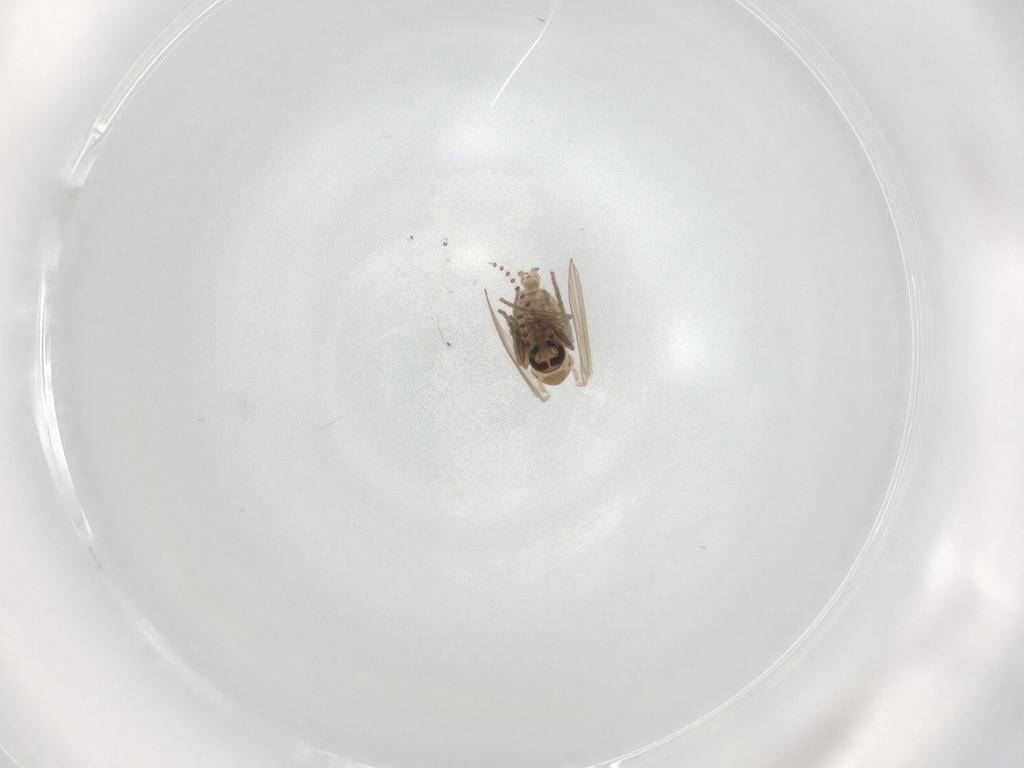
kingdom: Animalia
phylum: Arthropoda
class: Insecta
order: Diptera
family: Psychodidae
